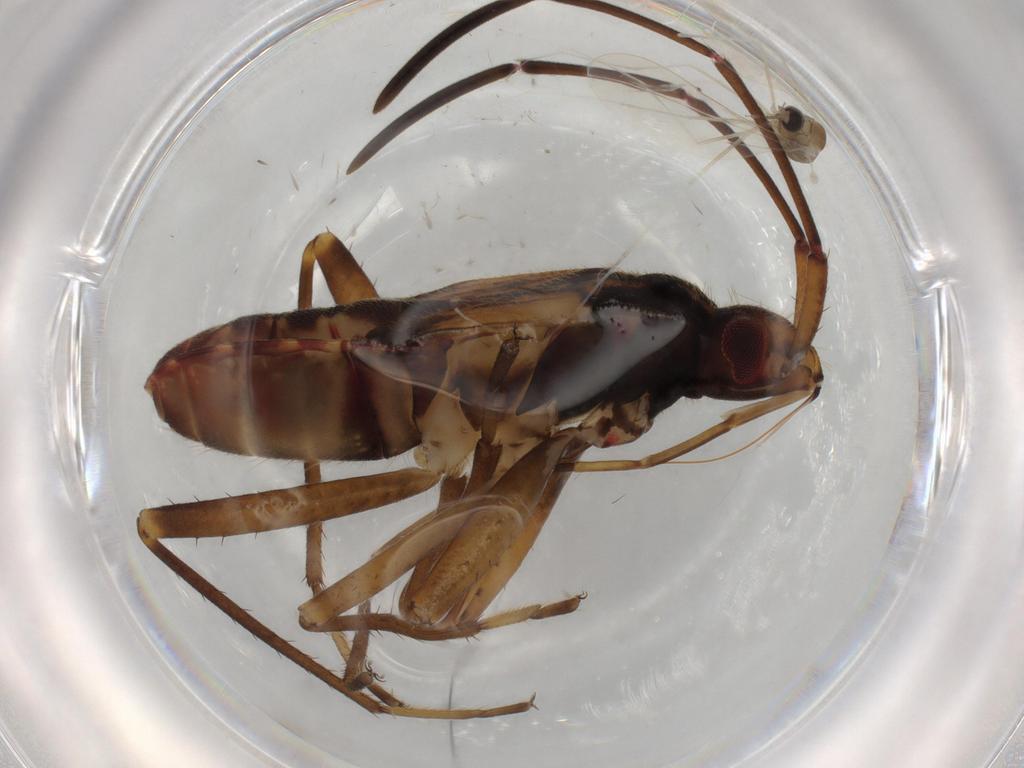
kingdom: Animalia
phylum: Arthropoda
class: Insecta
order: Hemiptera
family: Rhyparochromidae
